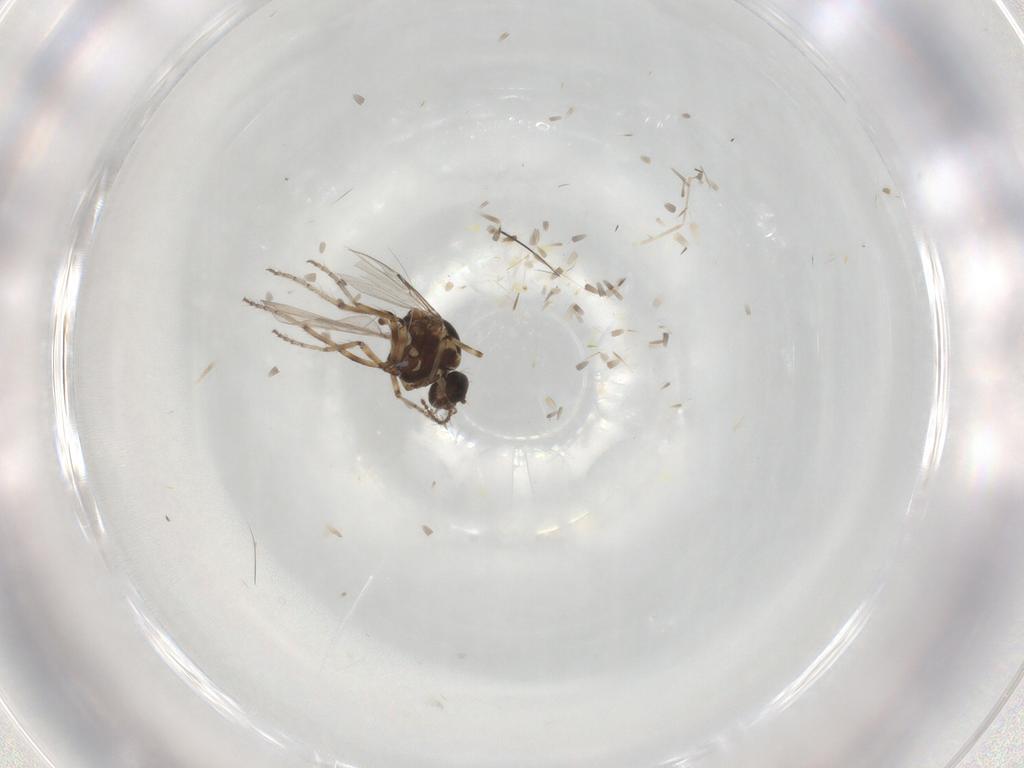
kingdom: Animalia
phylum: Arthropoda
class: Insecta
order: Diptera
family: Ceratopogonidae
